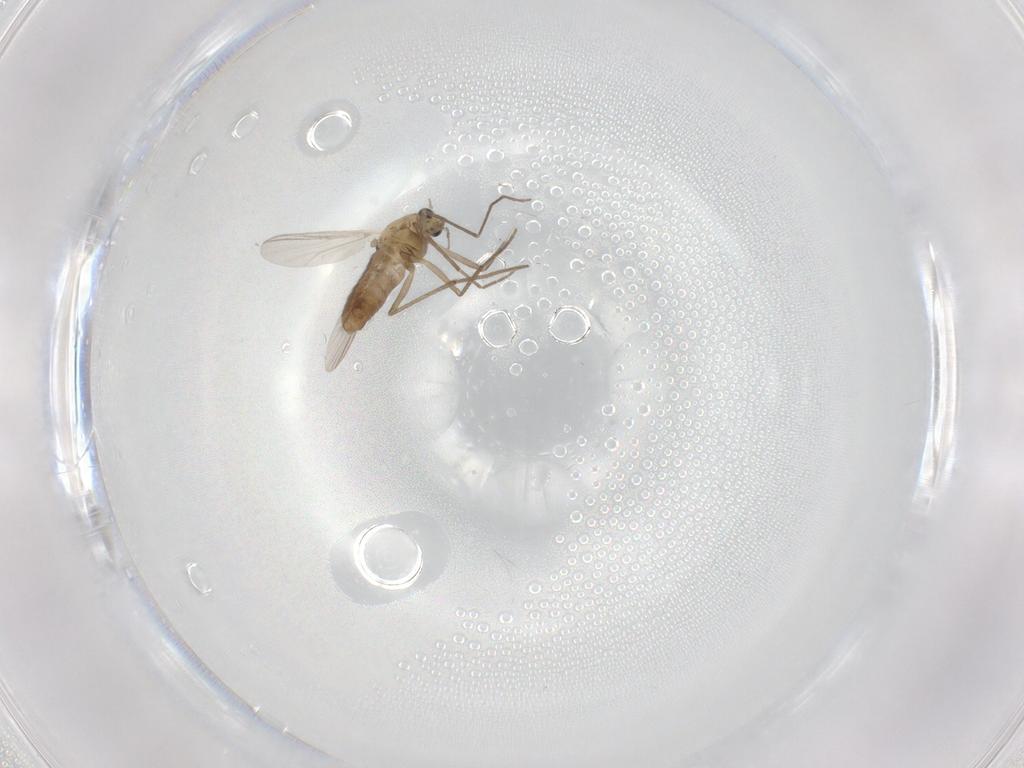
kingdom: Animalia
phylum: Arthropoda
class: Insecta
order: Diptera
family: Chironomidae
